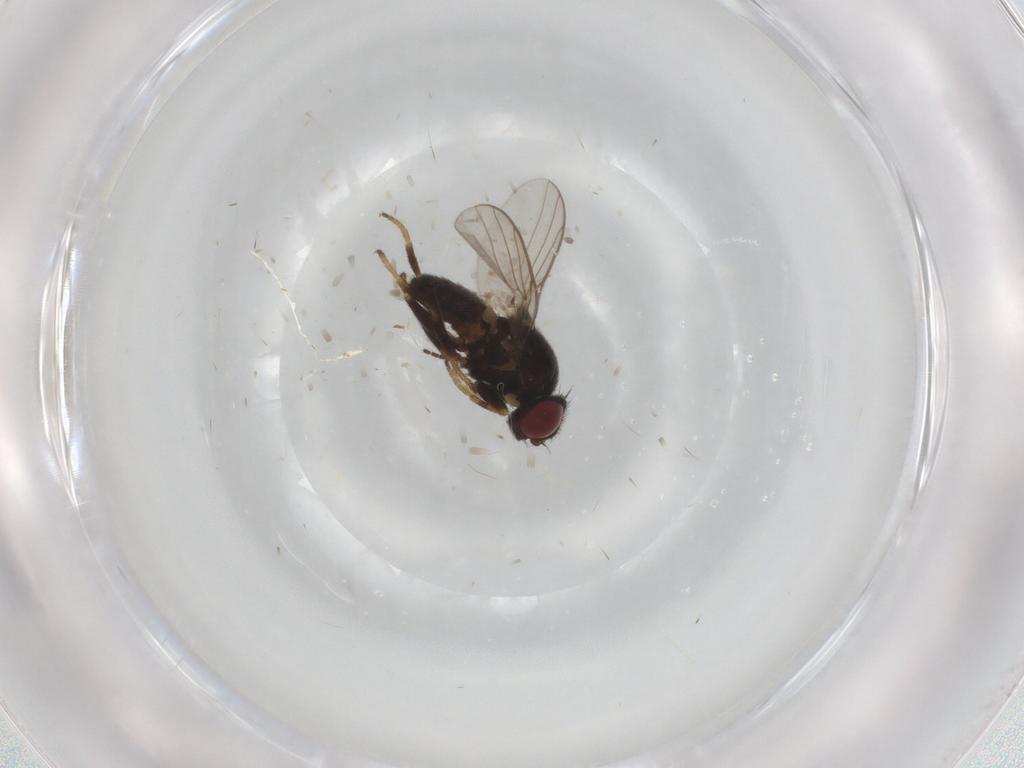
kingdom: Animalia
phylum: Arthropoda
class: Insecta
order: Diptera
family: Chloropidae
